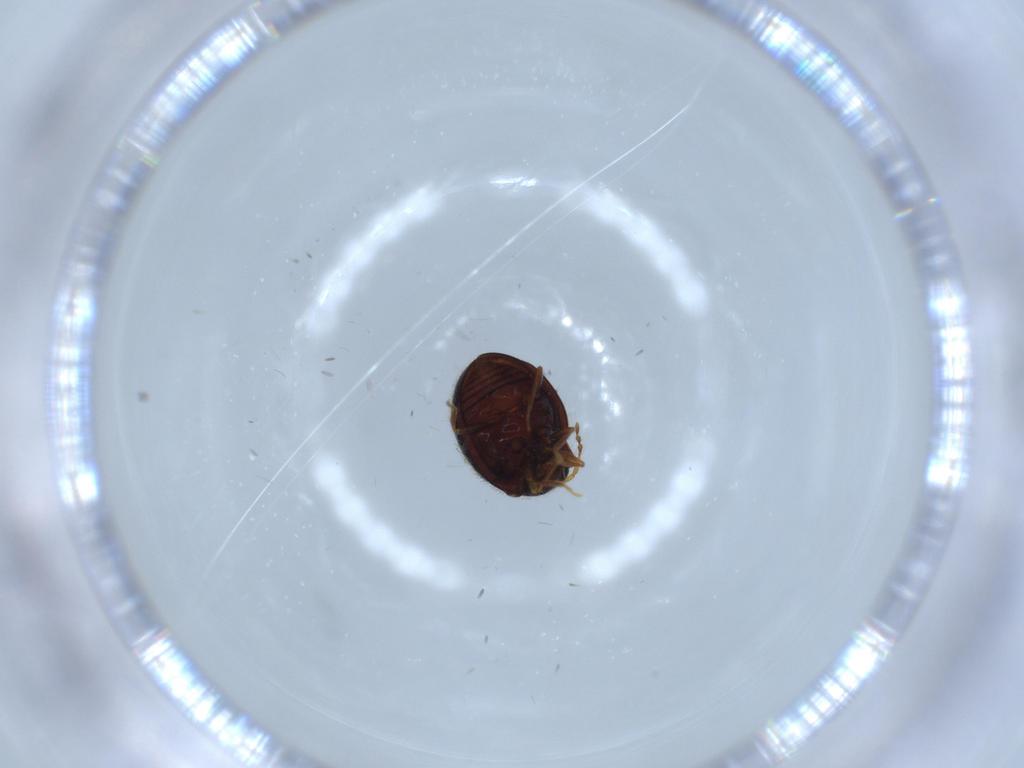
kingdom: Animalia
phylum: Arthropoda
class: Insecta
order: Coleoptera
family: Anamorphidae
